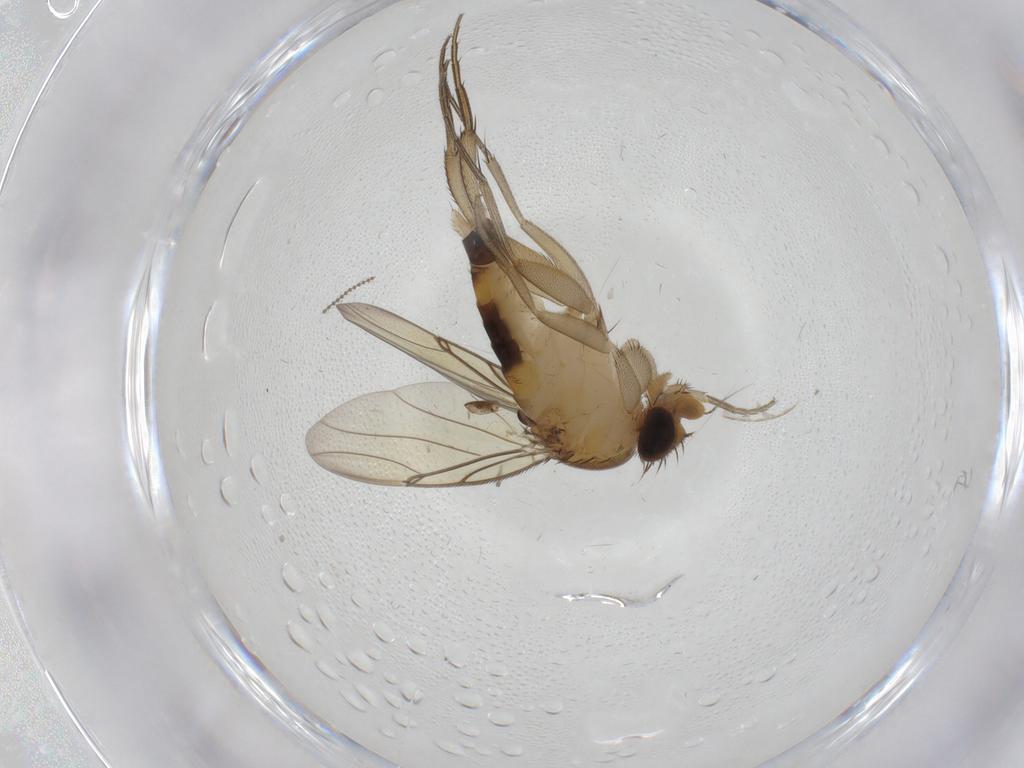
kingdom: Animalia
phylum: Arthropoda
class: Insecta
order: Diptera
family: Phoridae
